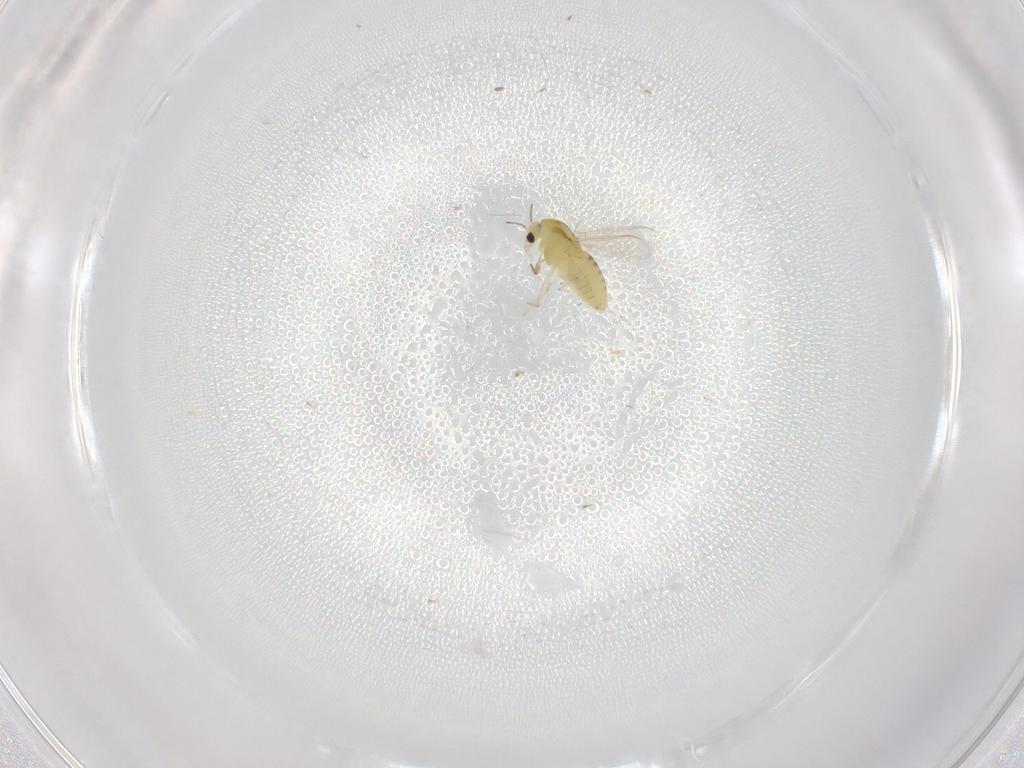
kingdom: Animalia
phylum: Arthropoda
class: Insecta
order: Diptera
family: Chironomidae
